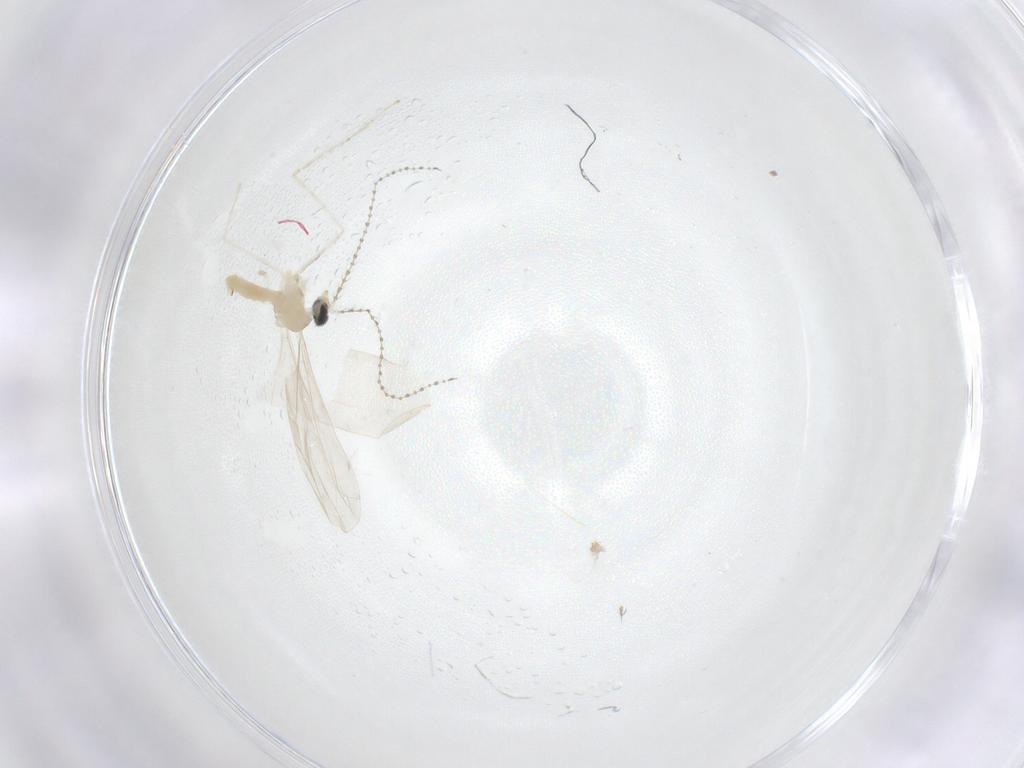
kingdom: Animalia
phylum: Arthropoda
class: Insecta
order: Diptera
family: Cecidomyiidae
